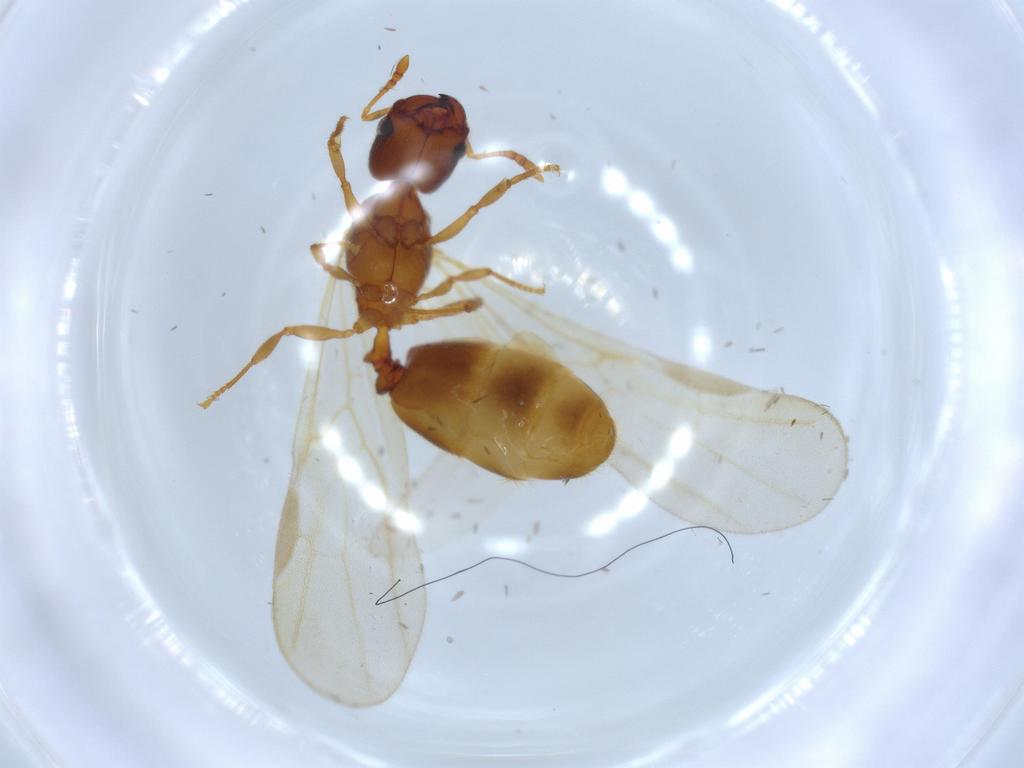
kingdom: Animalia
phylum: Arthropoda
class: Insecta
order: Hymenoptera
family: Formicidae
